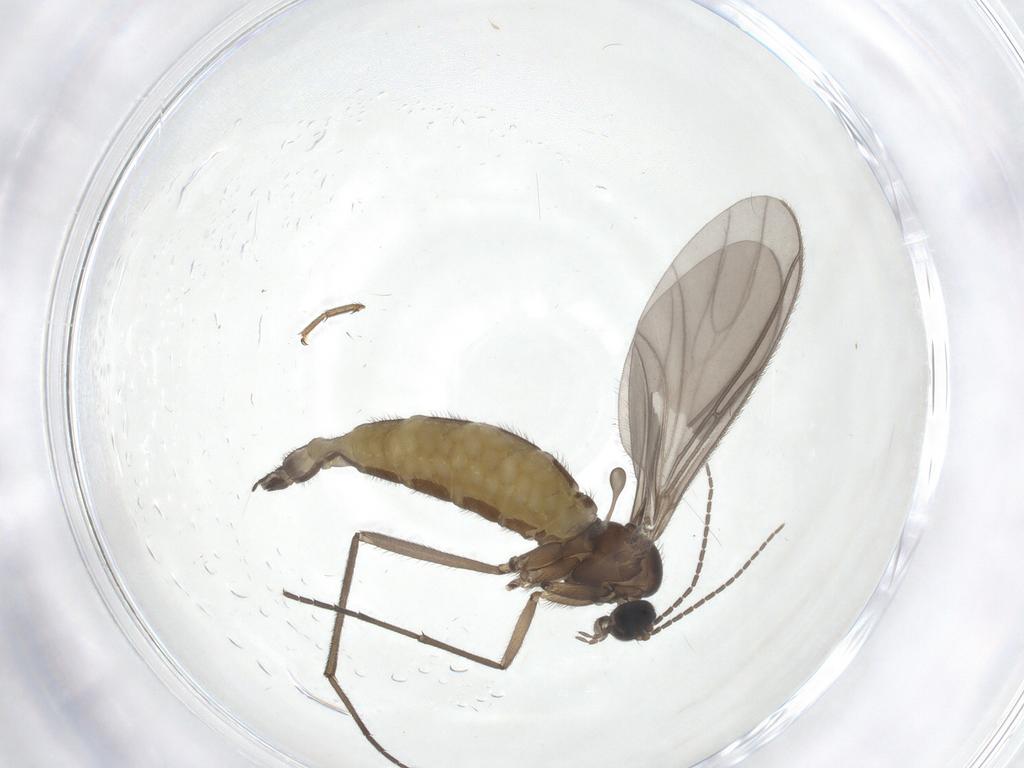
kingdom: Animalia
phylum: Arthropoda
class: Insecta
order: Diptera
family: Sciaridae
